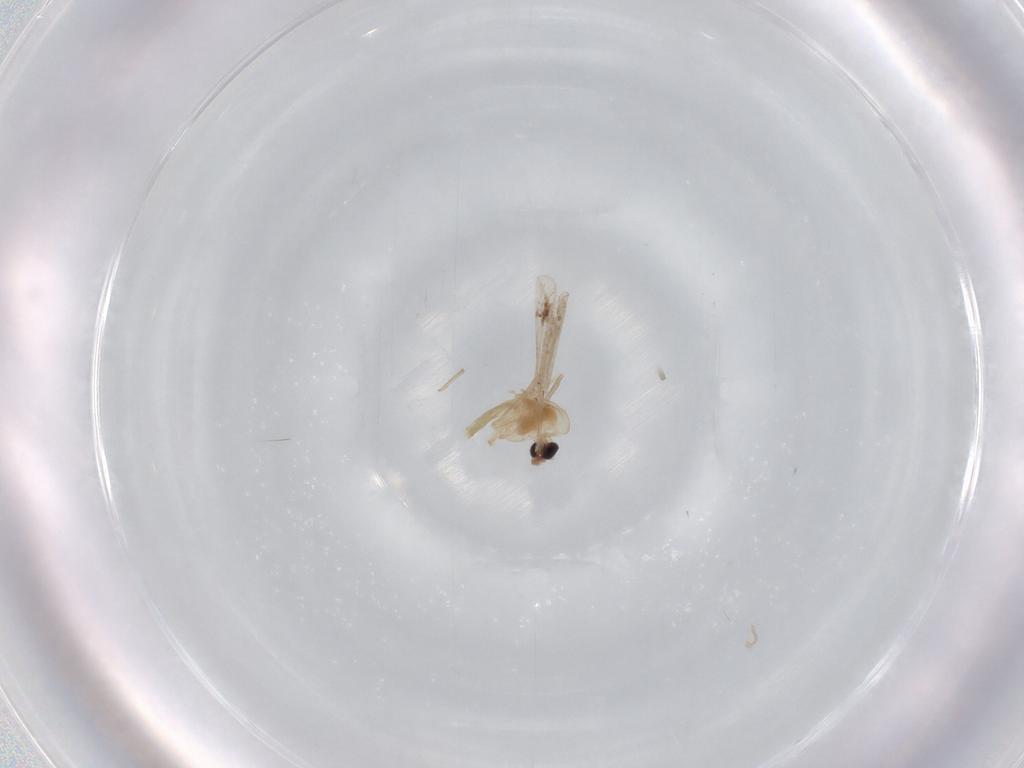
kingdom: Animalia
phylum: Arthropoda
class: Insecta
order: Diptera
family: Chironomidae
